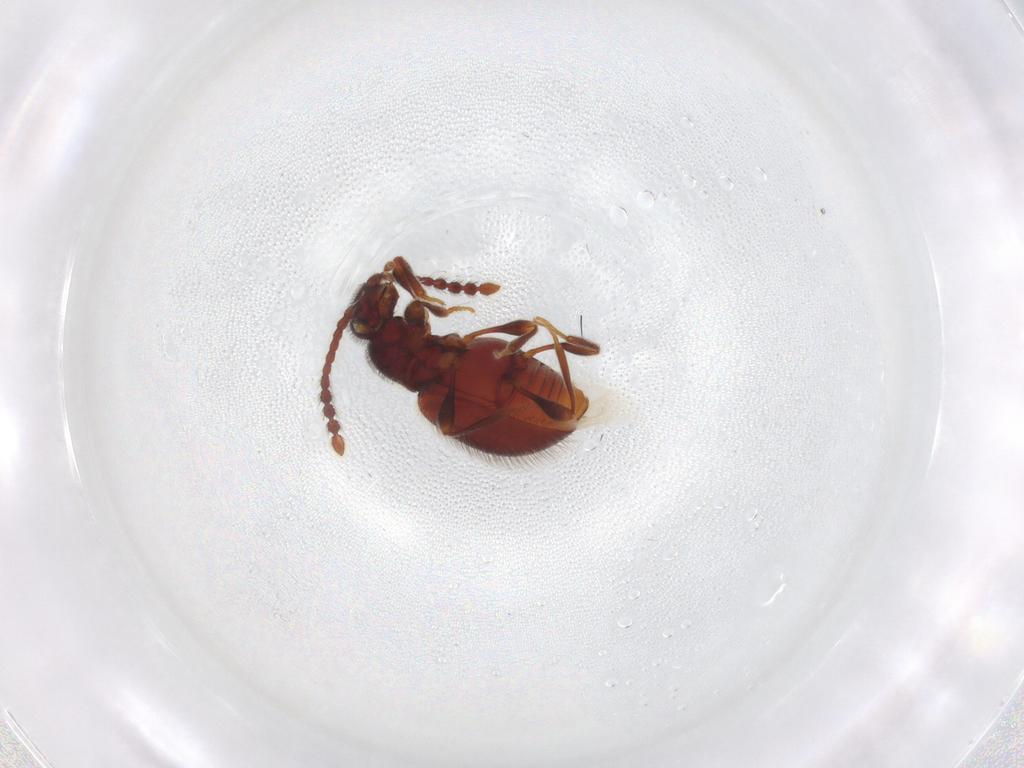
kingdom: Animalia
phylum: Arthropoda
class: Insecta
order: Coleoptera
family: Staphylinidae
